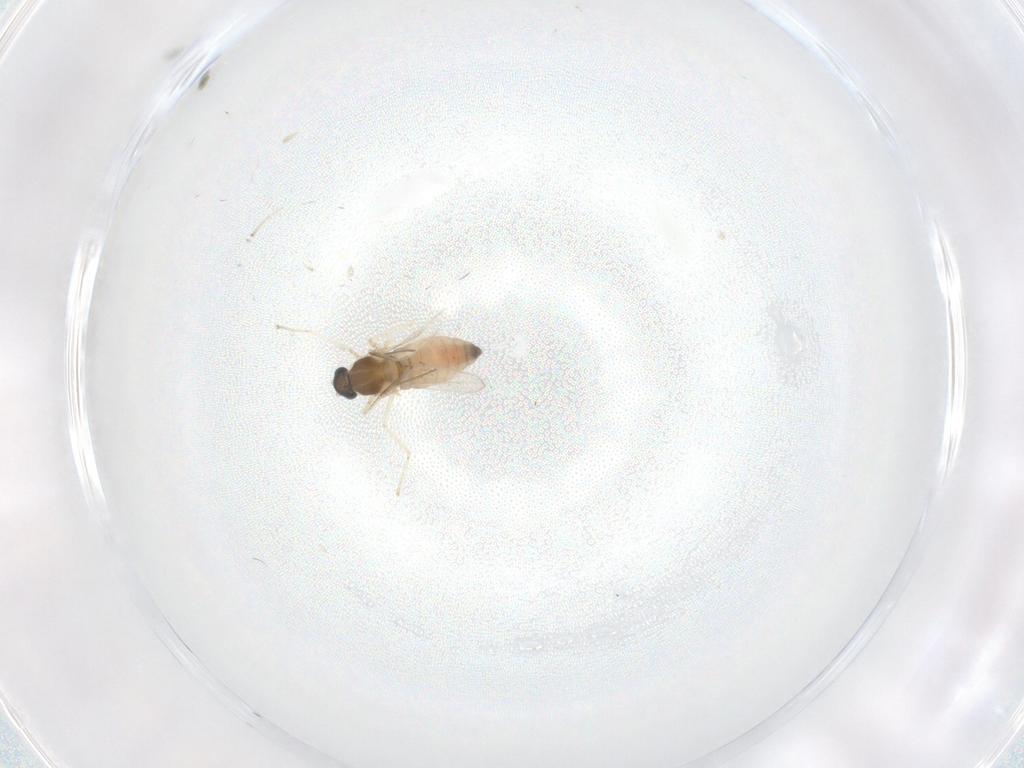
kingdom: Animalia
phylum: Arthropoda
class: Insecta
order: Diptera
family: Cecidomyiidae
